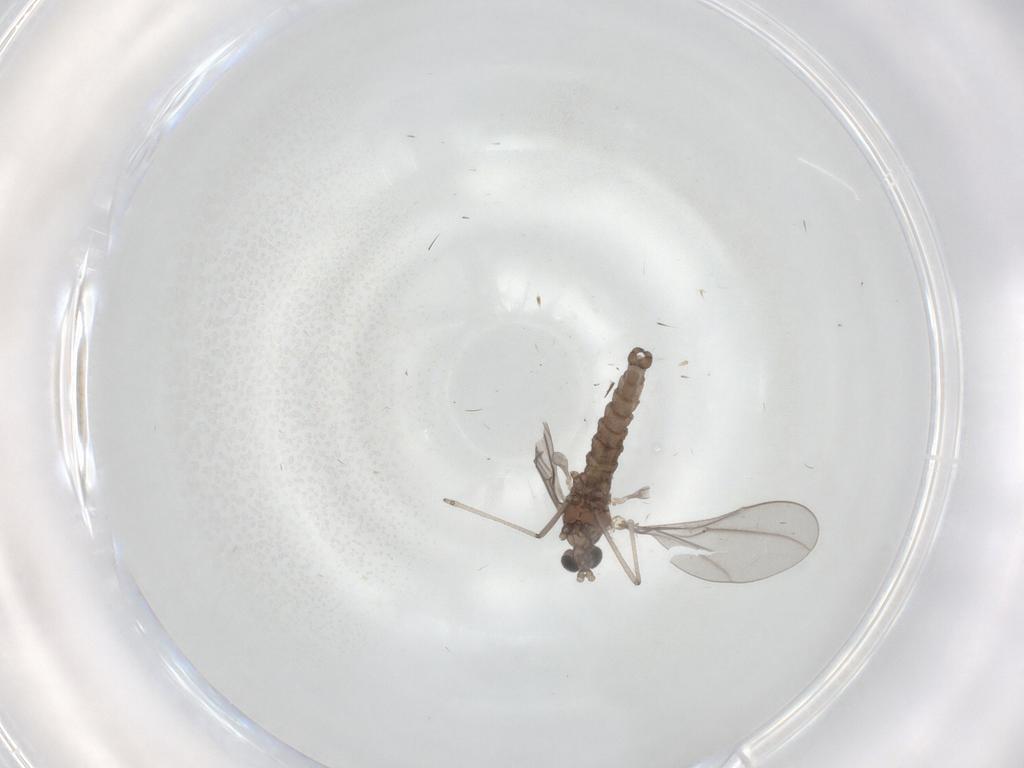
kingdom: Animalia
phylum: Arthropoda
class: Insecta
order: Diptera
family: Cecidomyiidae
